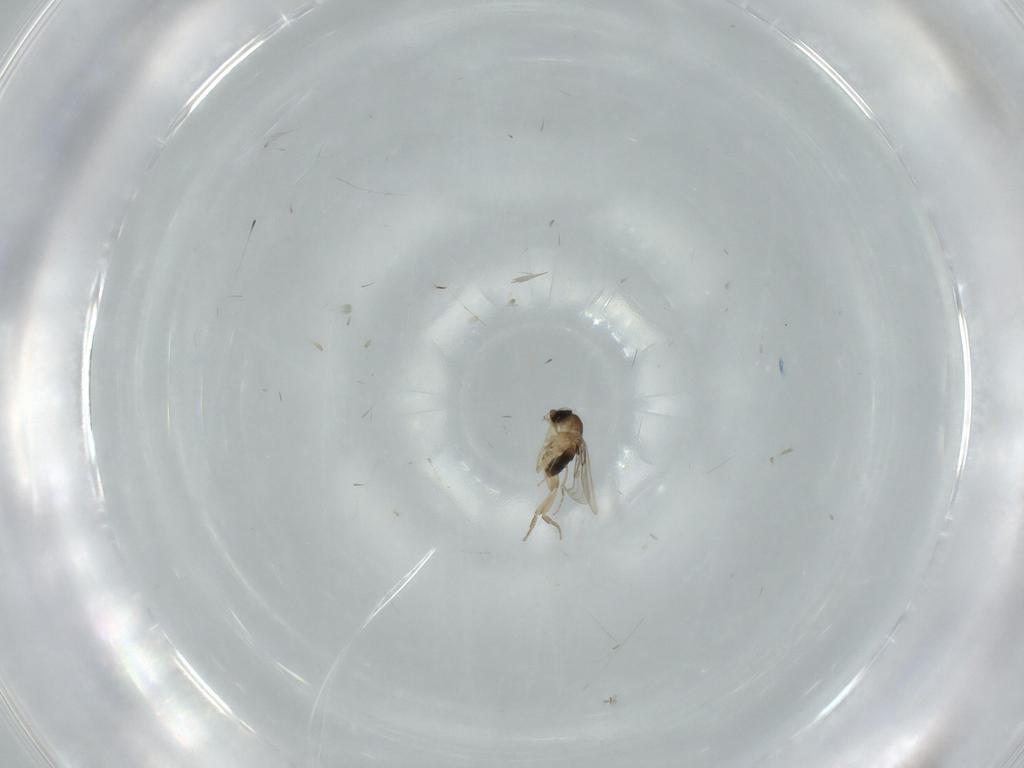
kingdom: Animalia
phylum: Arthropoda
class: Insecta
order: Diptera
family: Phoridae
